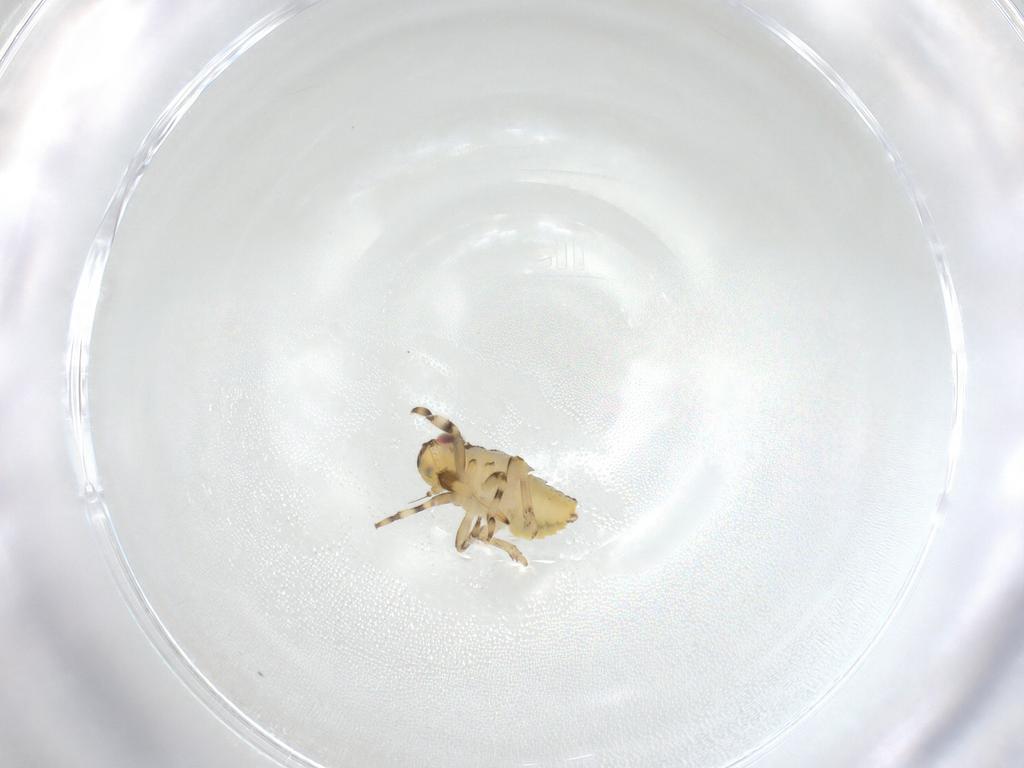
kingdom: Animalia
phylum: Arthropoda
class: Insecta
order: Hemiptera
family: Issidae
